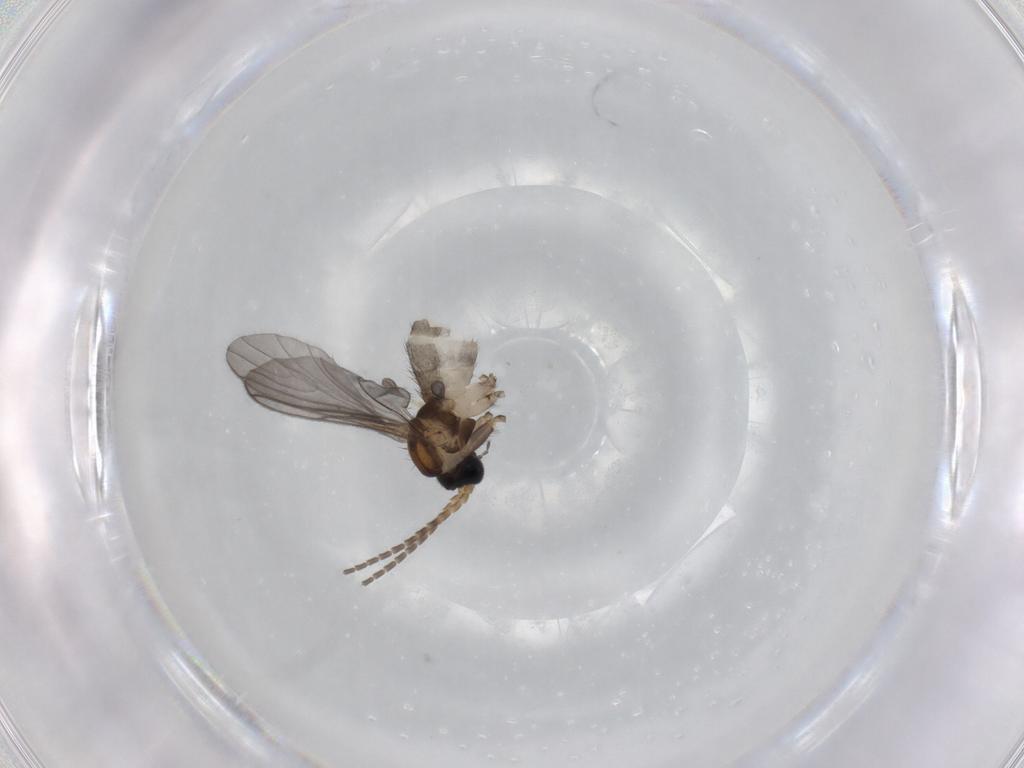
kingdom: Animalia
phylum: Arthropoda
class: Insecta
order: Diptera
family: Sciaridae
